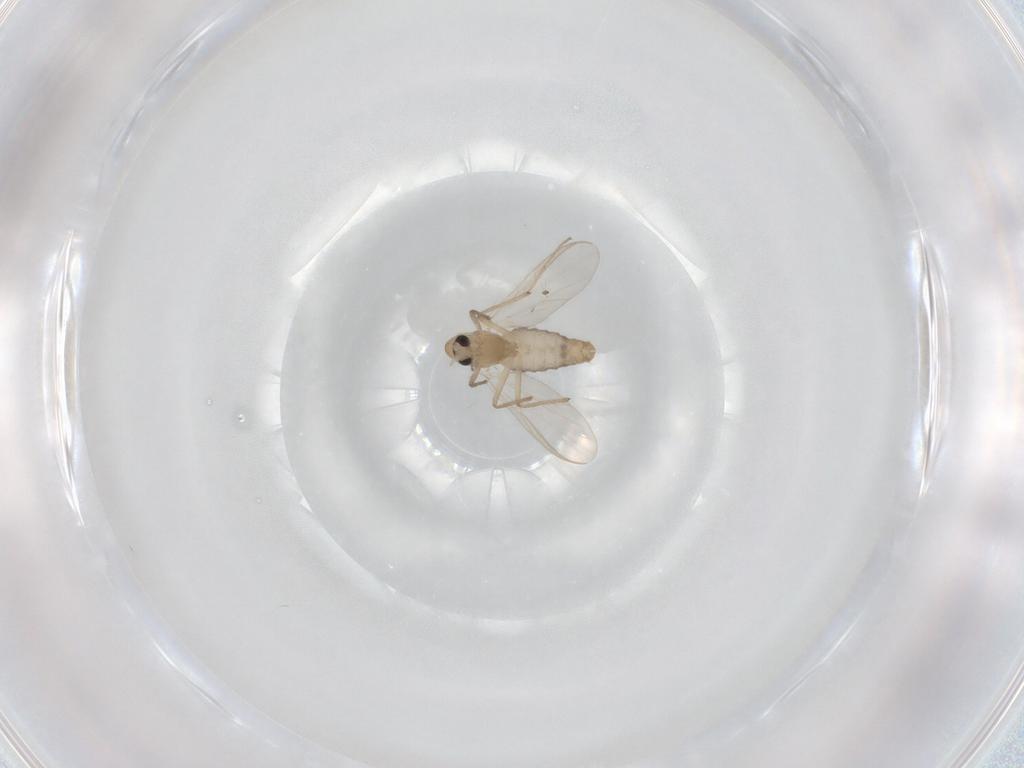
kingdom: Animalia
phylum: Arthropoda
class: Insecta
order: Diptera
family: Chironomidae
